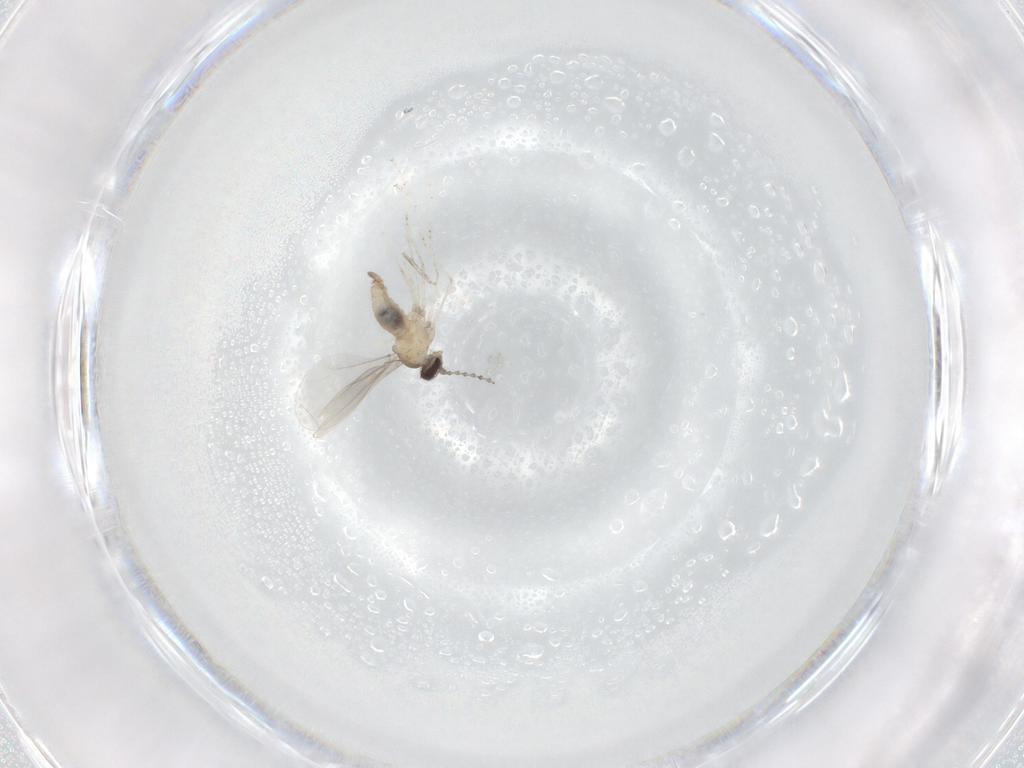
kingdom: Animalia
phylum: Arthropoda
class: Insecta
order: Diptera
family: Cecidomyiidae
